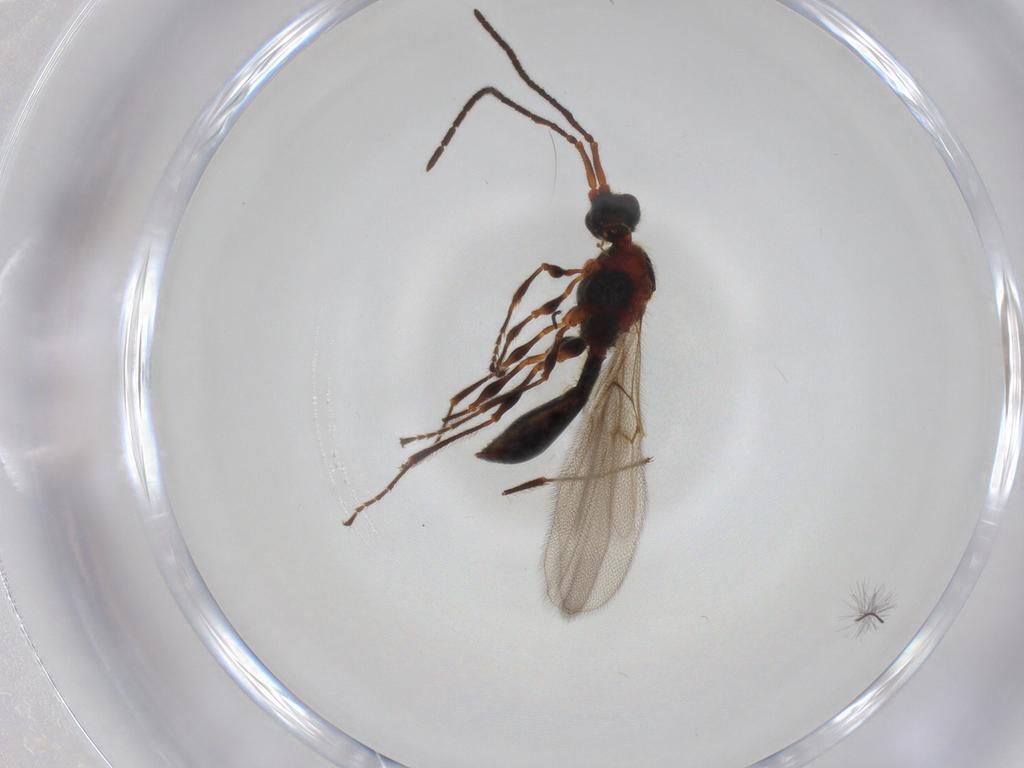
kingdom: Animalia
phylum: Arthropoda
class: Insecta
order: Hymenoptera
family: Diapriidae
